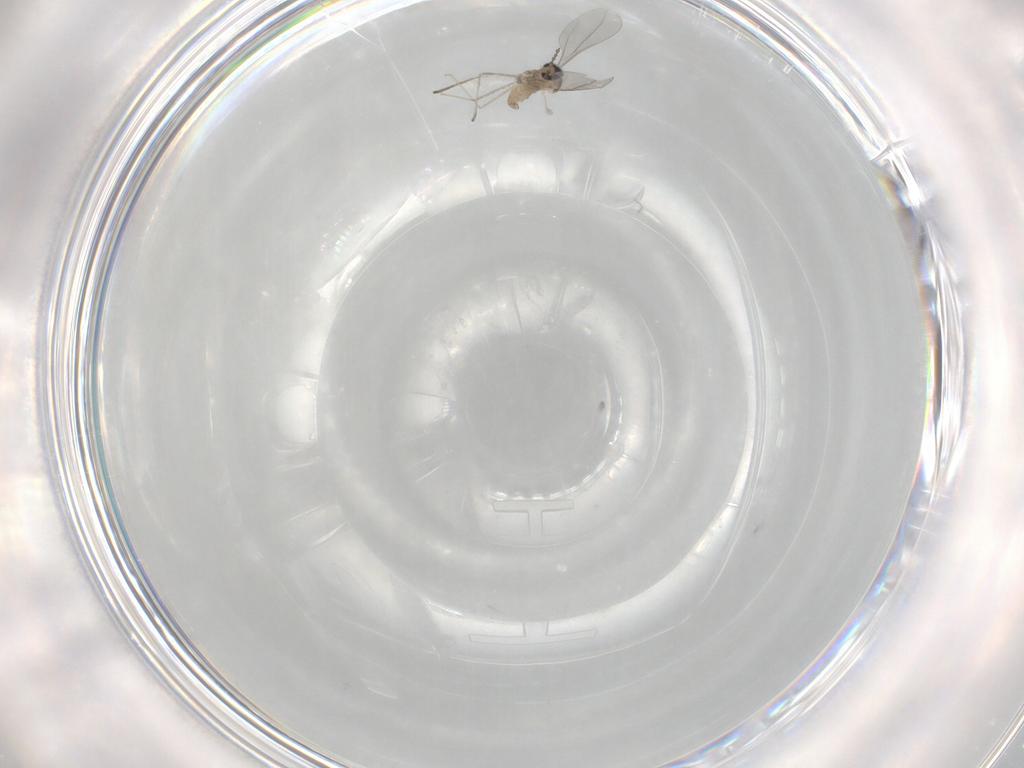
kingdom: Animalia
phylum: Arthropoda
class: Insecta
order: Diptera
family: Cecidomyiidae
